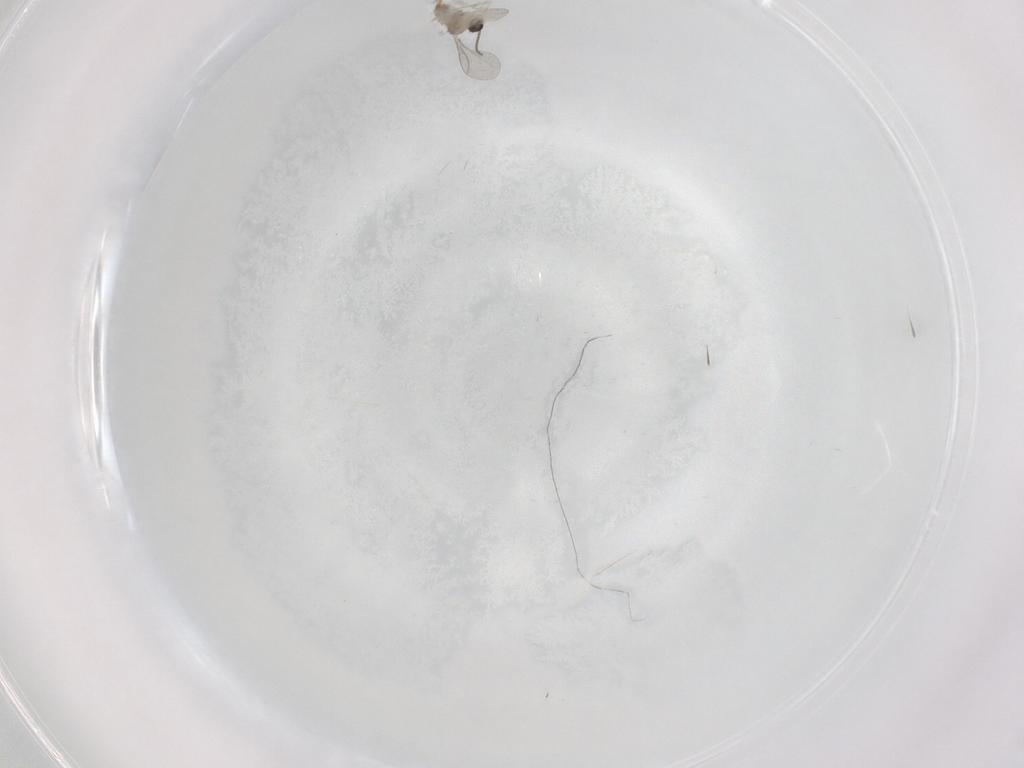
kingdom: Animalia
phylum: Arthropoda
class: Insecta
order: Diptera
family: Cecidomyiidae
